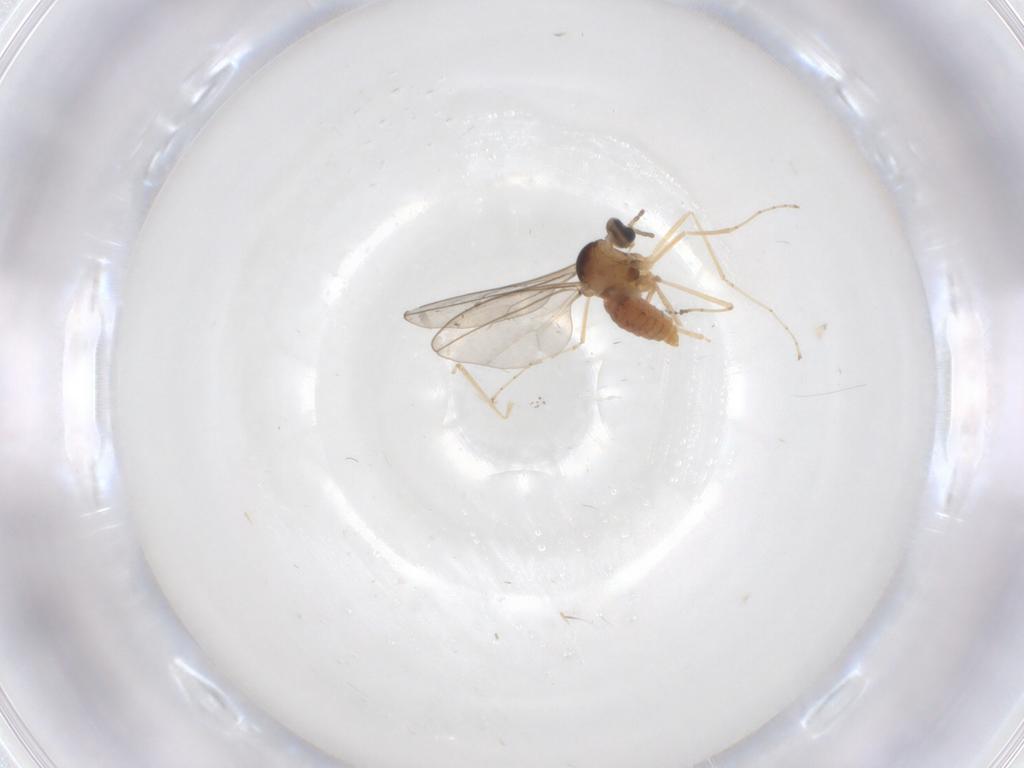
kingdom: Animalia
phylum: Arthropoda
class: Insecta
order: Diptera
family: Cecidomyiidae
